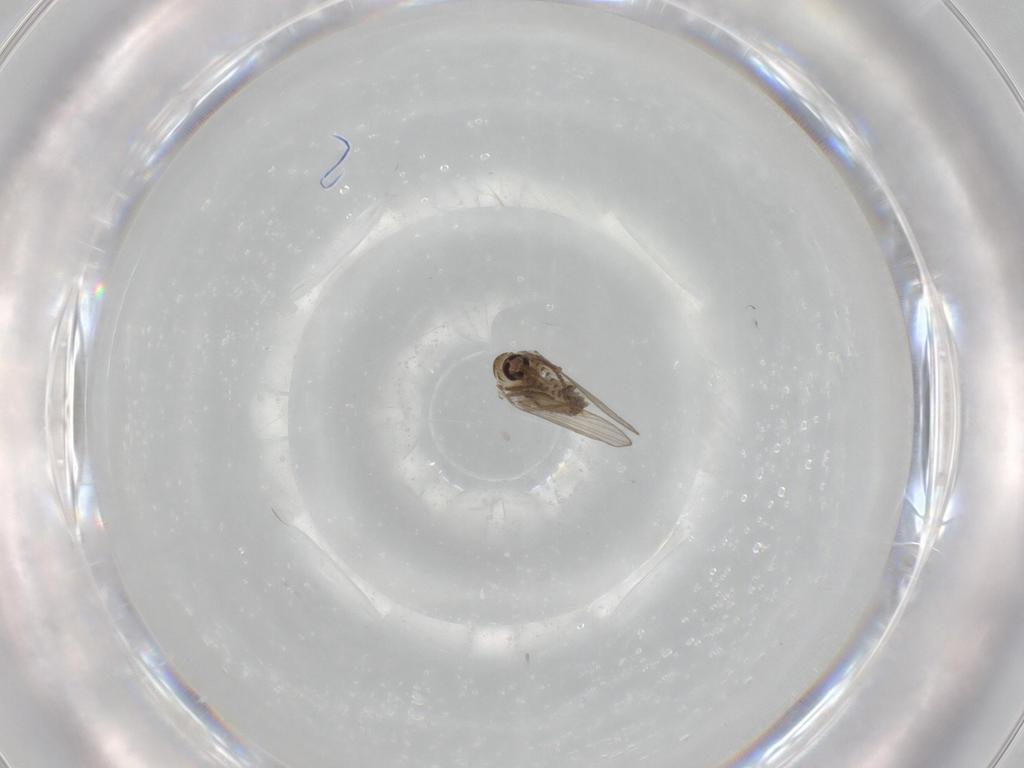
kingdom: Animalia
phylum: Arthropoda
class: Insecta
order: Diptera
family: Psychodidae
